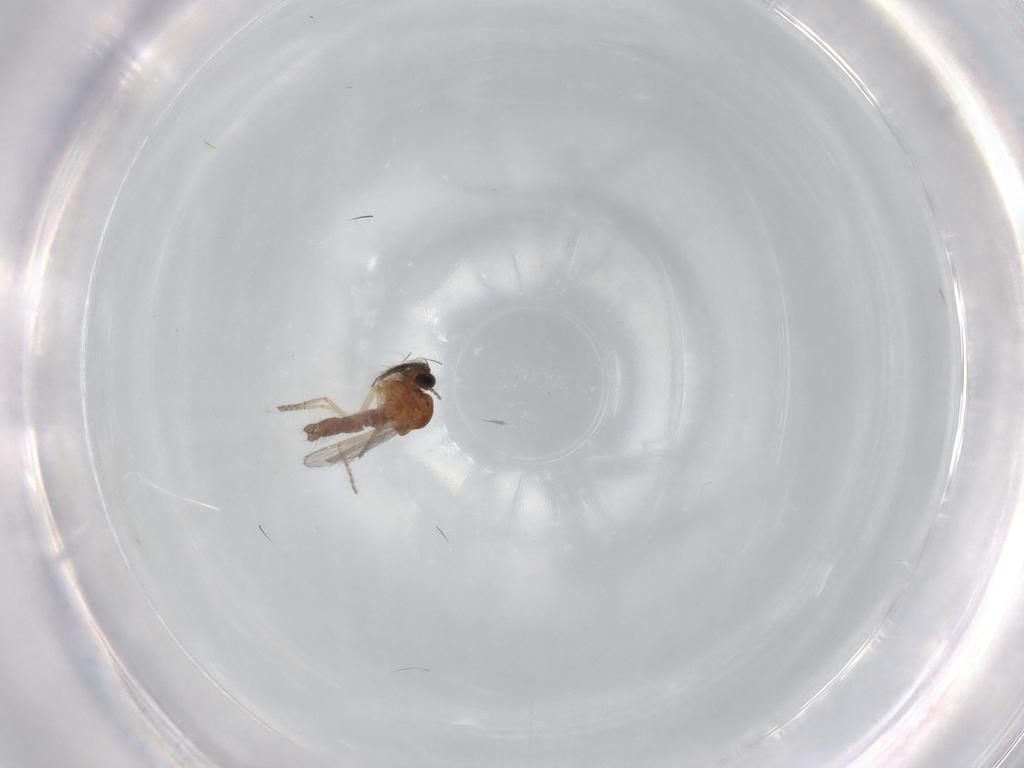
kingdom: Animalia
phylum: Arthropoda
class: Insecta
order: Diptera
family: Ceratopogonidae
